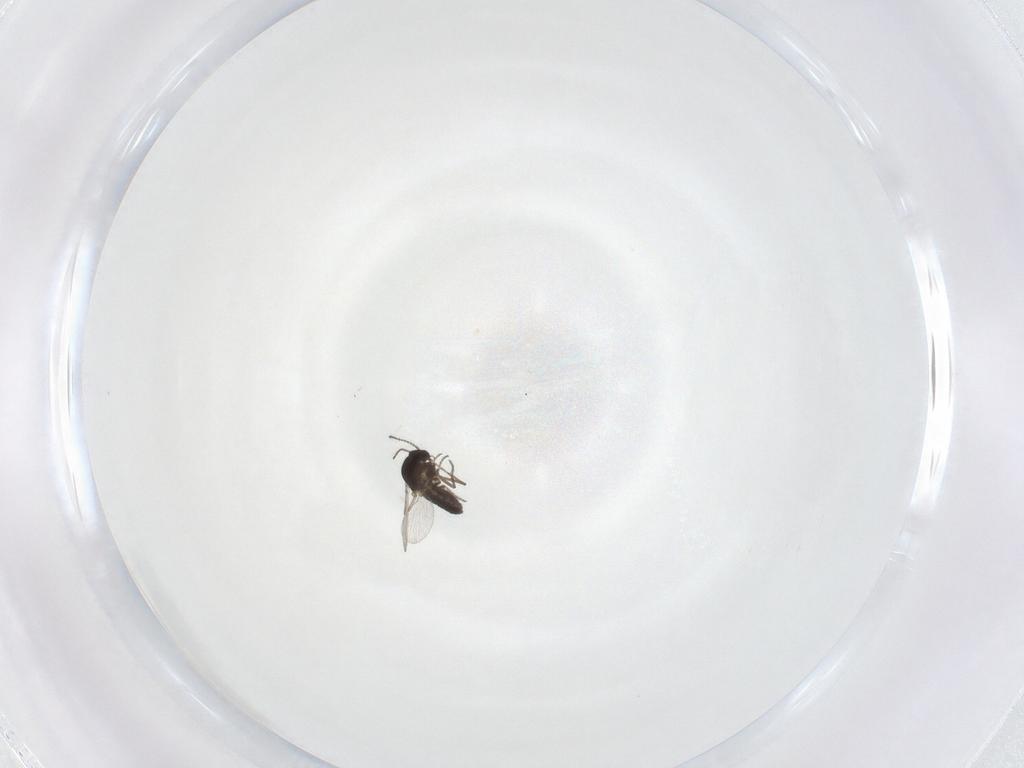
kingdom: Animalia
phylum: Arthropoda
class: Insecta
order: Diptera
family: Ceratopogonidae
